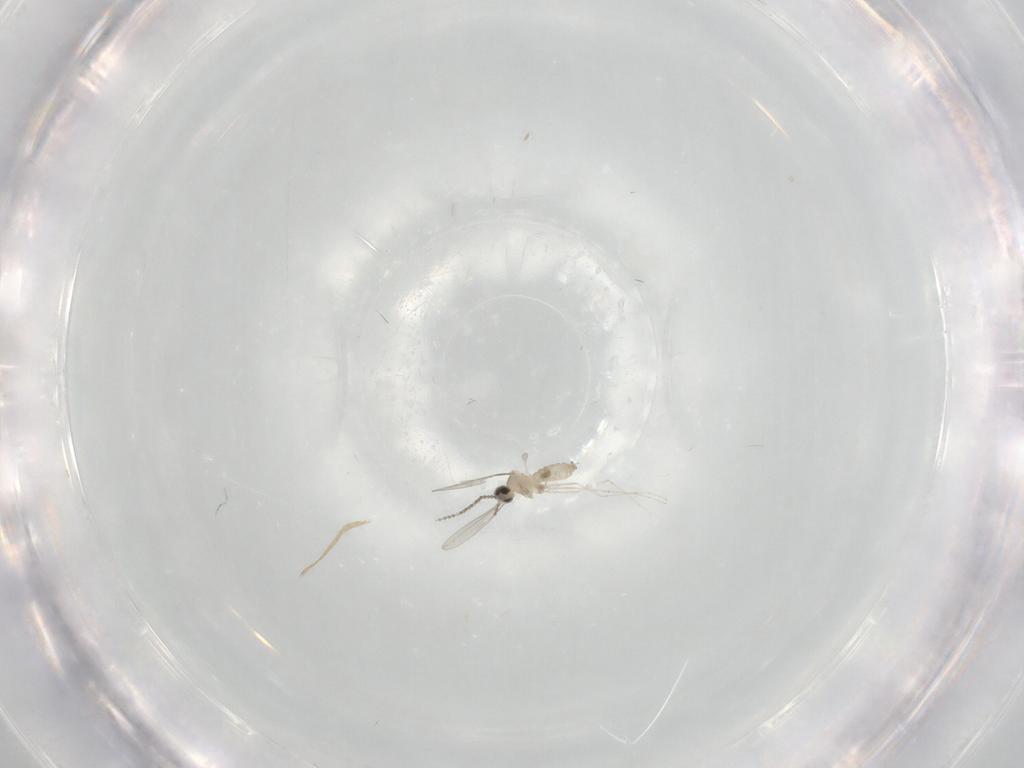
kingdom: Animalia
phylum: Arthropoda
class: Insecta
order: Diptera
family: Cecidomyiidae
